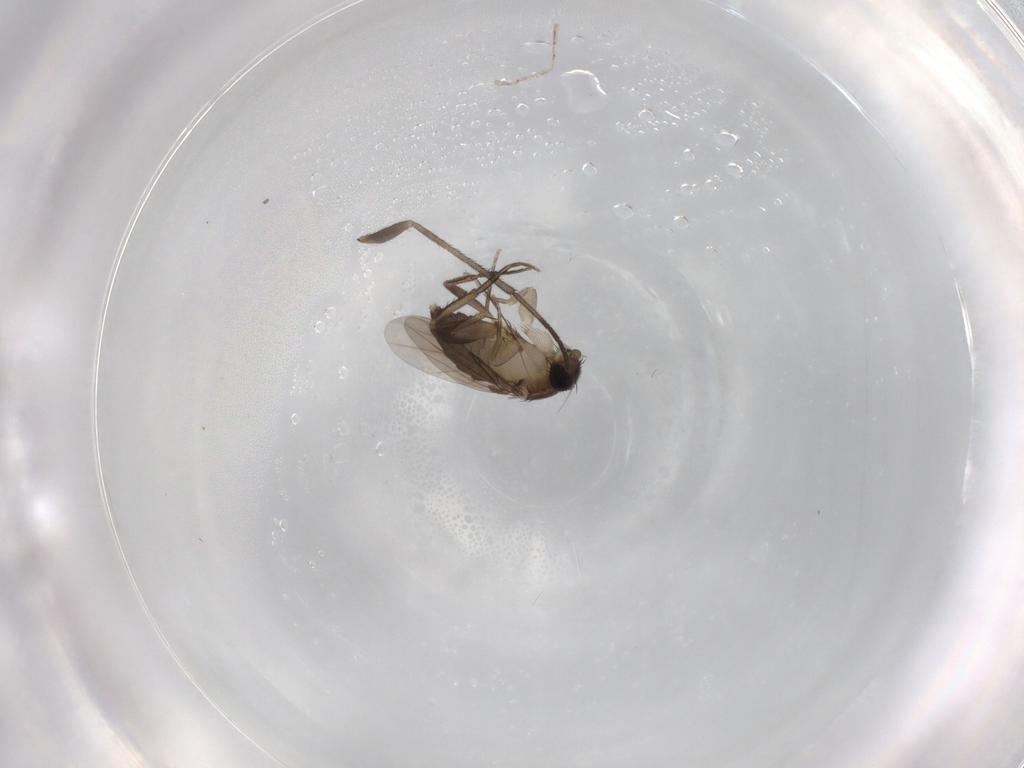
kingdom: Animalia
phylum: Arthropoda
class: Insecta
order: Diptera
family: Phoridae
